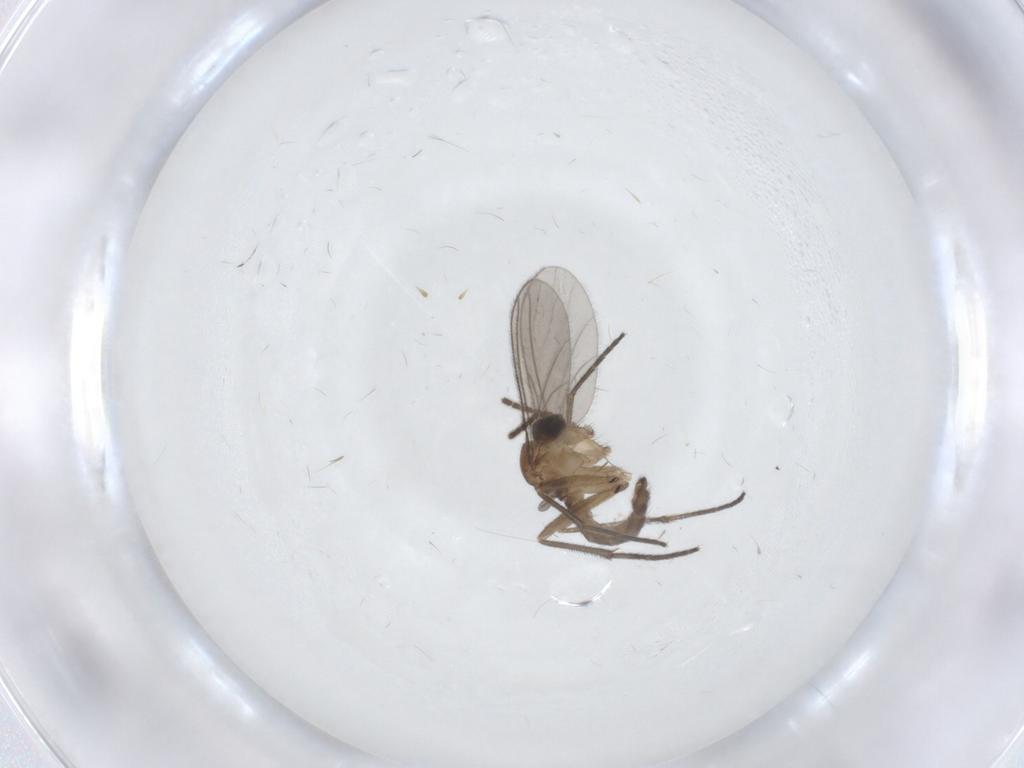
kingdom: Animalia
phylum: Arthropoda
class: Insecta
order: Diptera
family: Sciaridae
